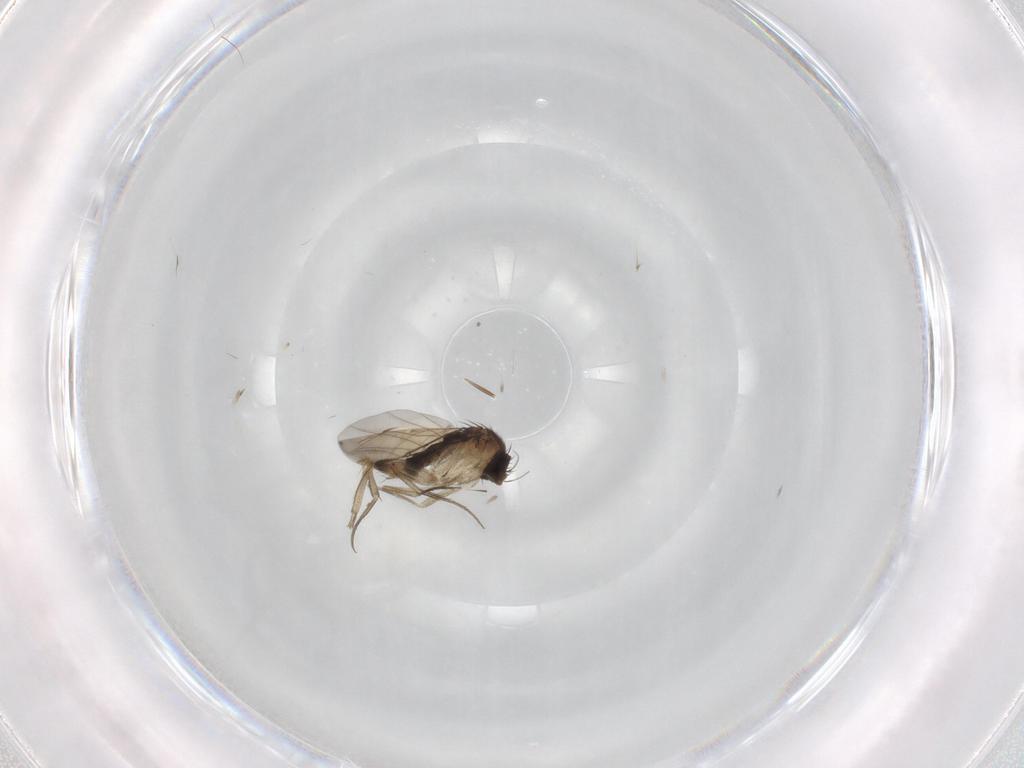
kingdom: Animalia
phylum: Arthropoda
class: Insecta
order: Diptera
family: Phoridae
